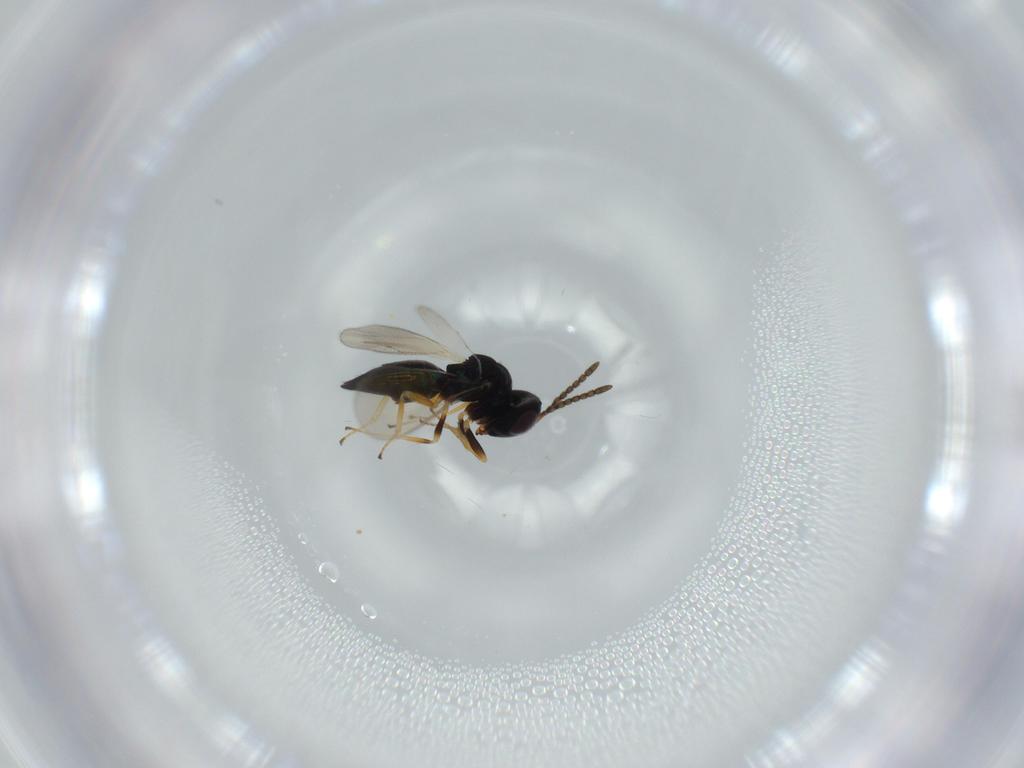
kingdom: Animalia
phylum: Arthropoda
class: Insecta
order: Hymenoptera
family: Pteromalidae
